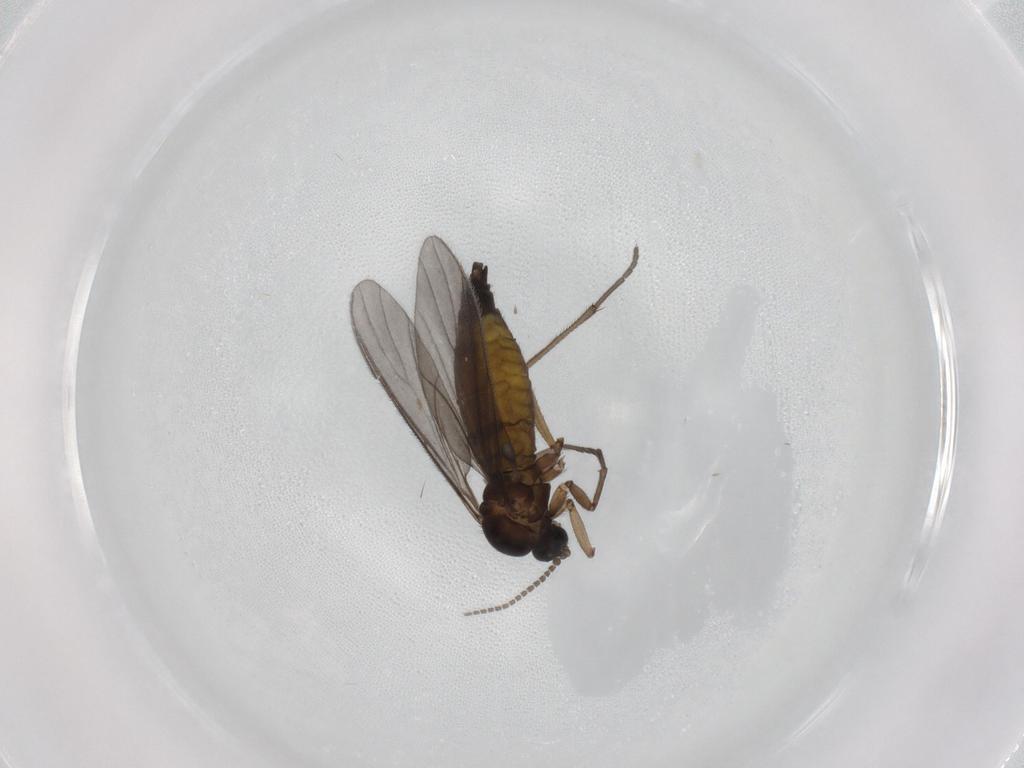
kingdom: Animalia
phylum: Arthropoda
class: Insecta
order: Diptera
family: Sciaridae
